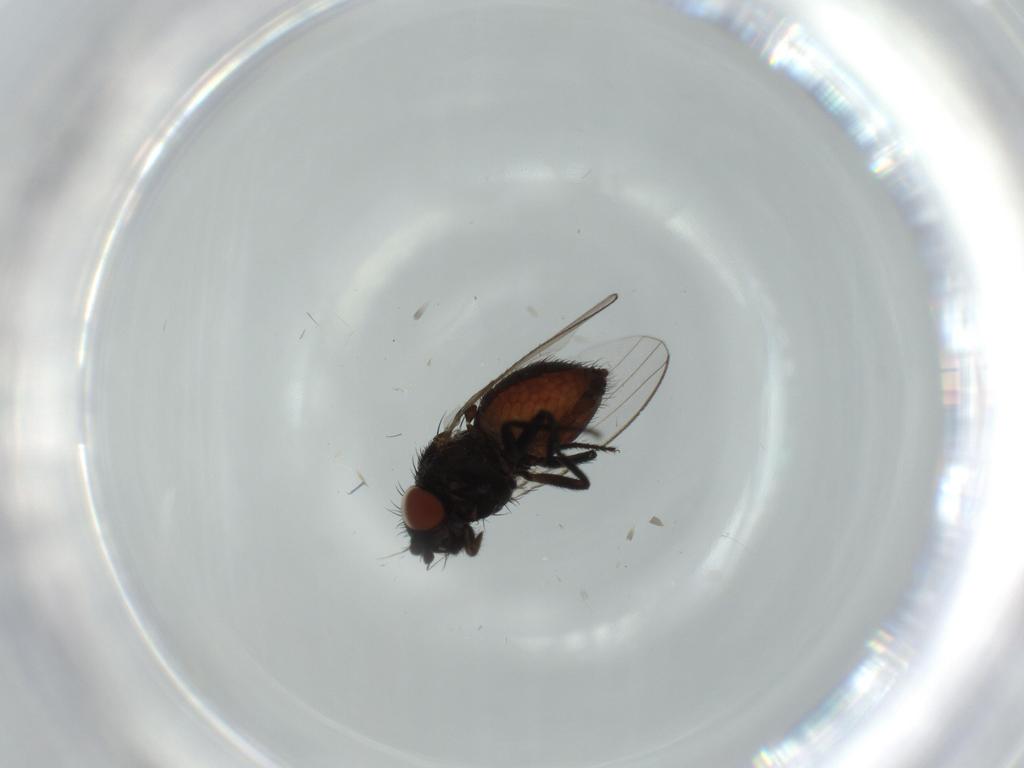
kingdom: Animalia
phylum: Arthropoda
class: Insecta
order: Diptera
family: Milichiidae
